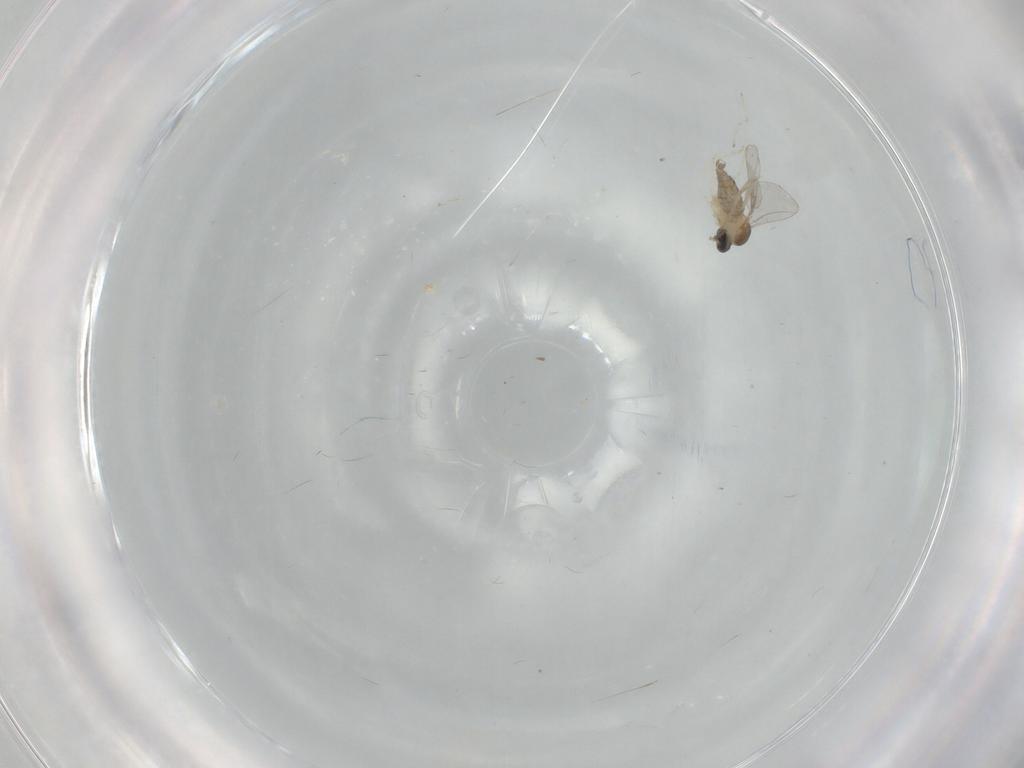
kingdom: Animalia
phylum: Arthropoda
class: Insecta
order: Diptera
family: Cecidomyiidae
